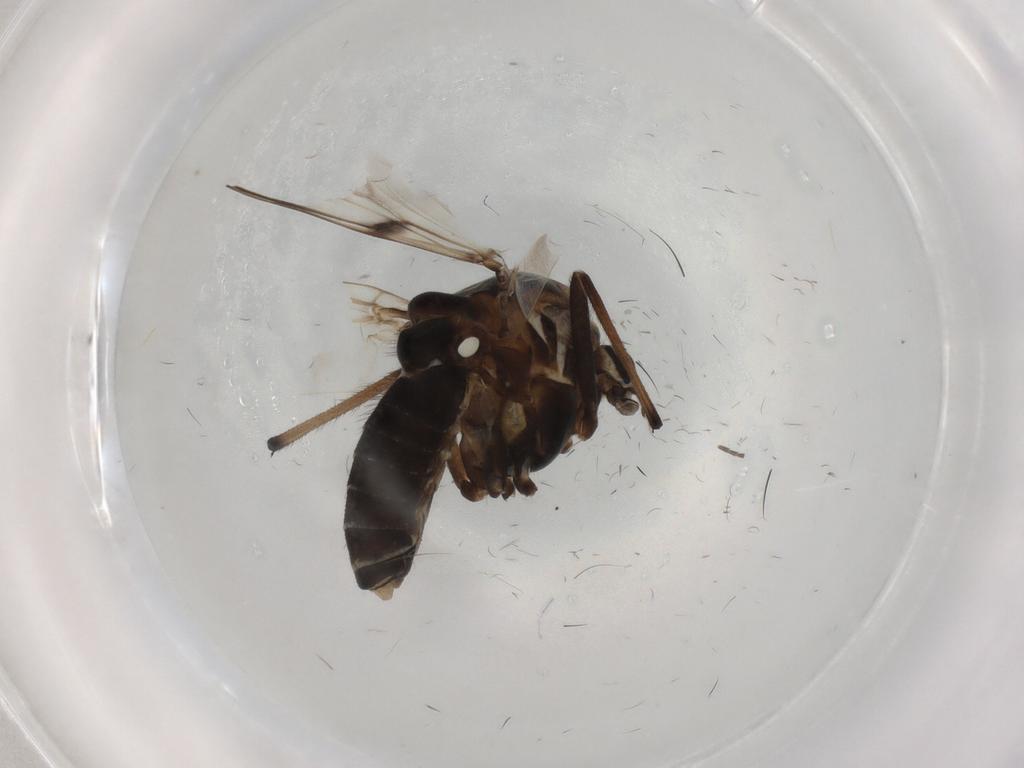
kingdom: Animalia
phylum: Arthropoda
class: Insecta
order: Diptera
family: Chironomidae
